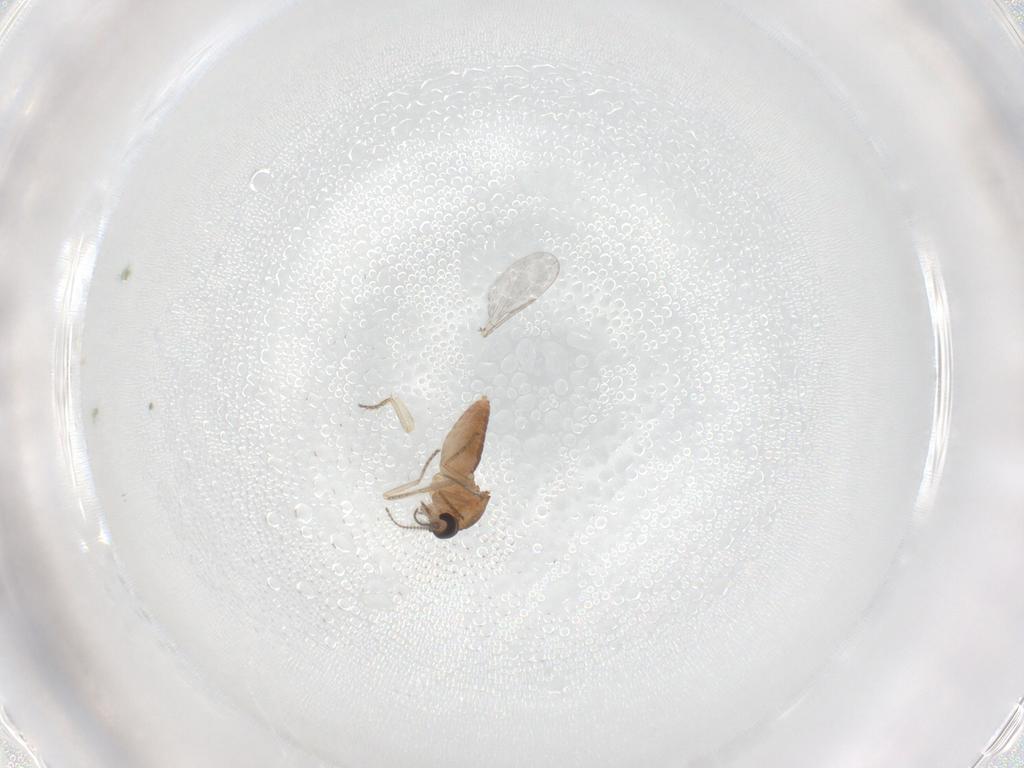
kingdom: Animalia
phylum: Arthropoda
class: Insecta
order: Diptera
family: Ceratopogonidae
